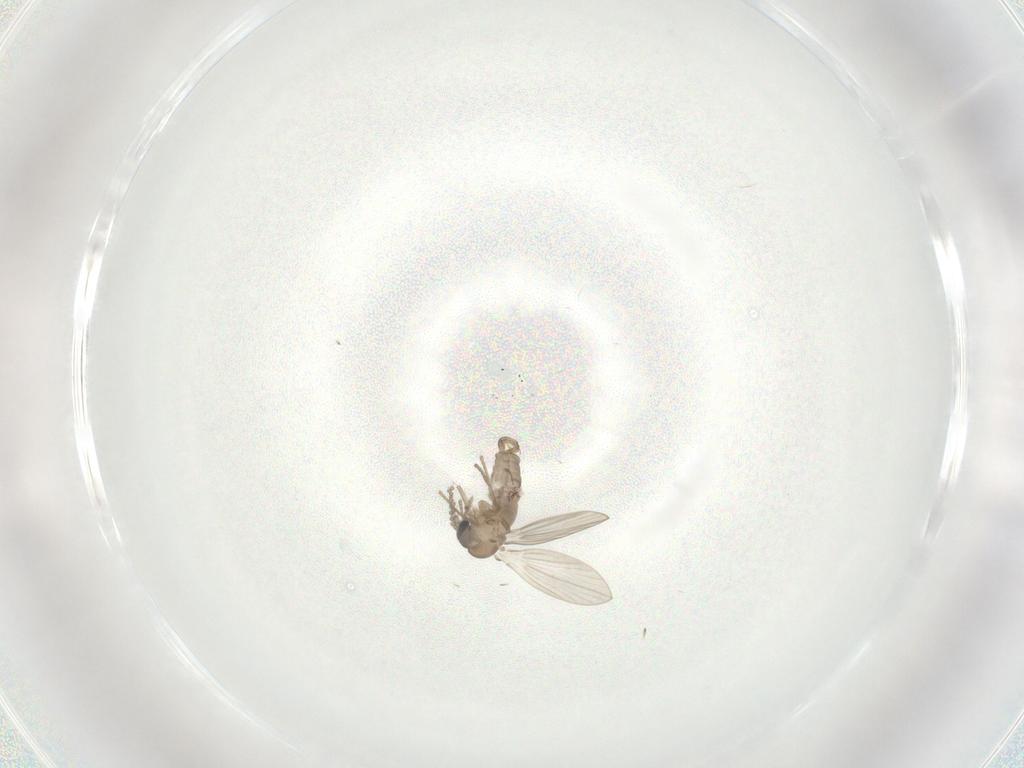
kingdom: Animalia
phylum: Arthropoda
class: Insecta
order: Diptera
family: Psychodidae
